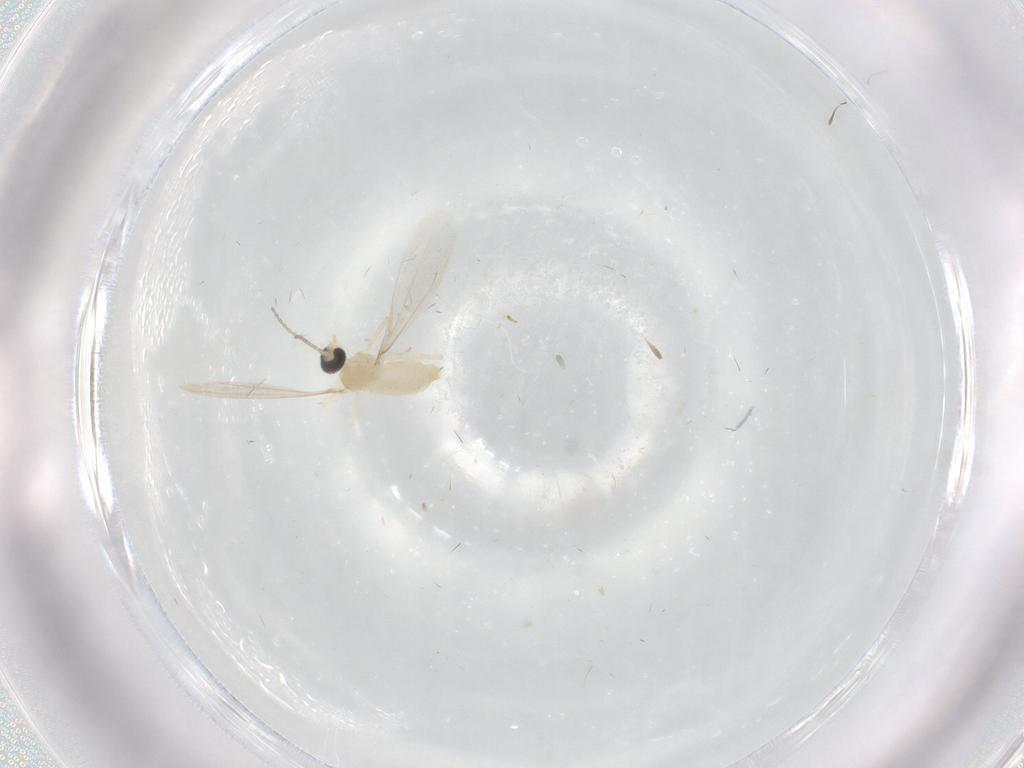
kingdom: Animalia
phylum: Arthropoda
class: Insecta
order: Diptera
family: Cecidomyiidae
